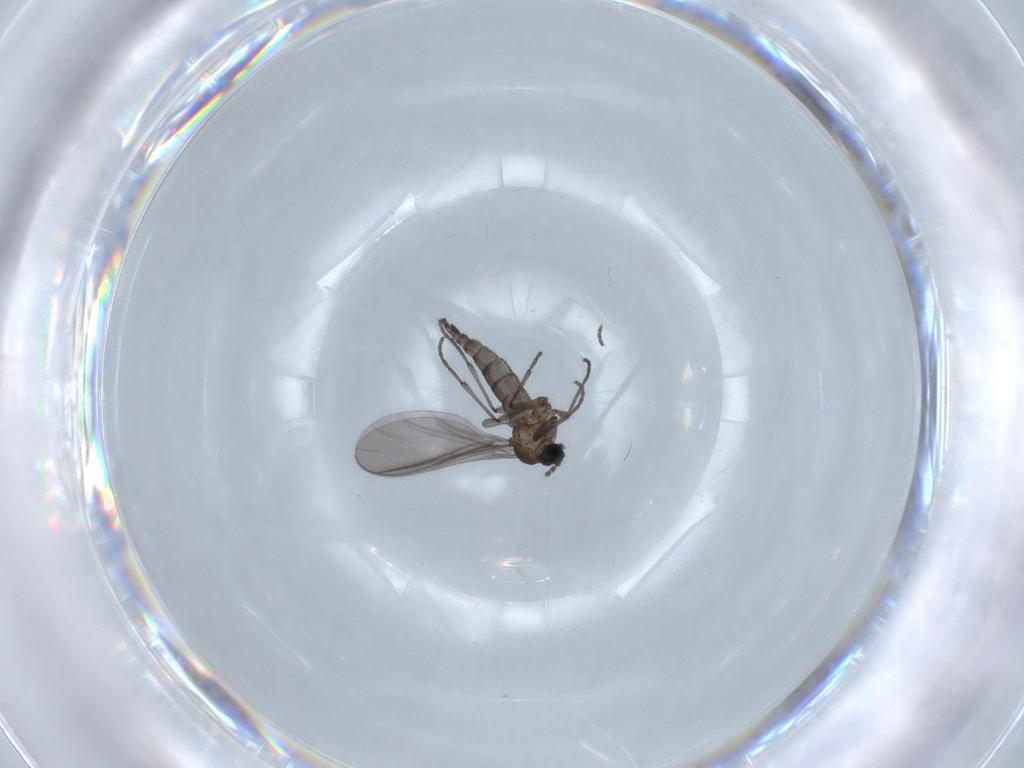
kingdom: Animalia
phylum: Arthropoda
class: Insecta
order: Diptera
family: Sciaridae
